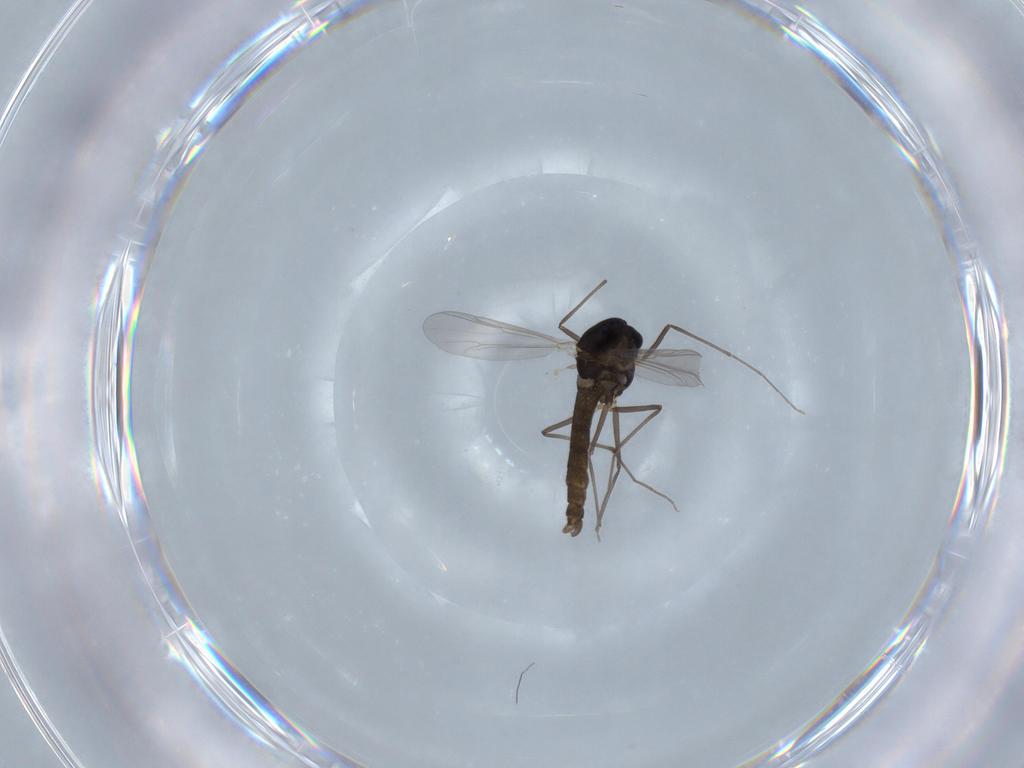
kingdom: Animalia
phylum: Arthropoda
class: Insecta
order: Diptera
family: Chironomidae
